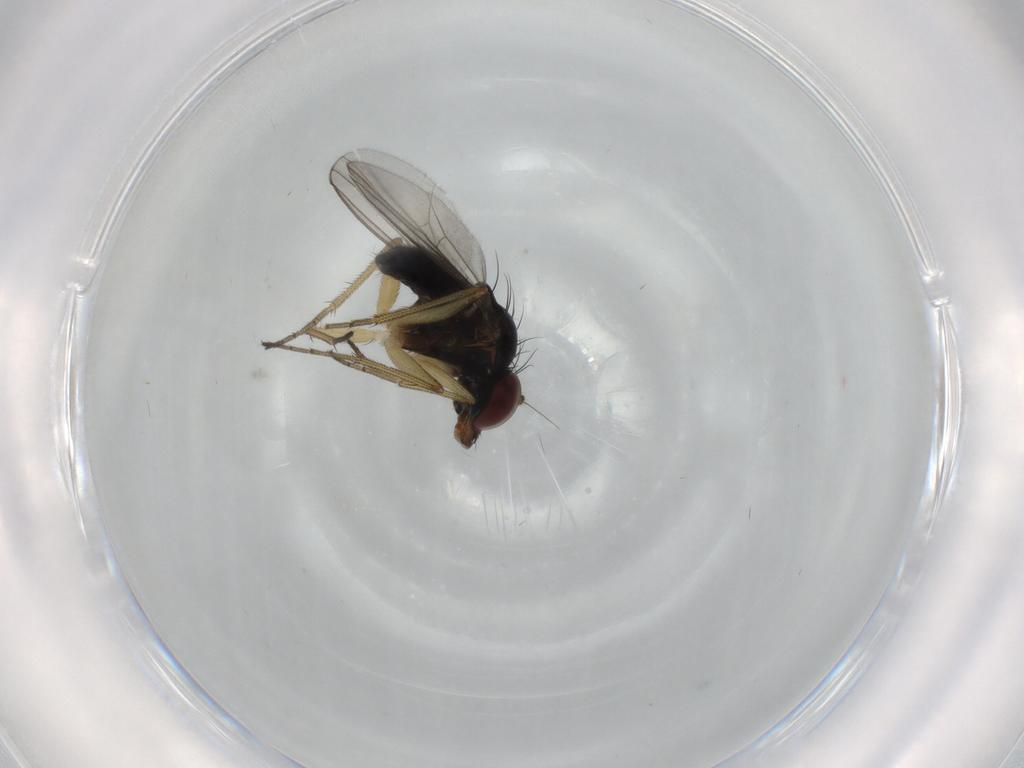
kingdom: Animalia
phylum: Arthropoda
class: Insecta
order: Diptera
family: Dolichopodidae
